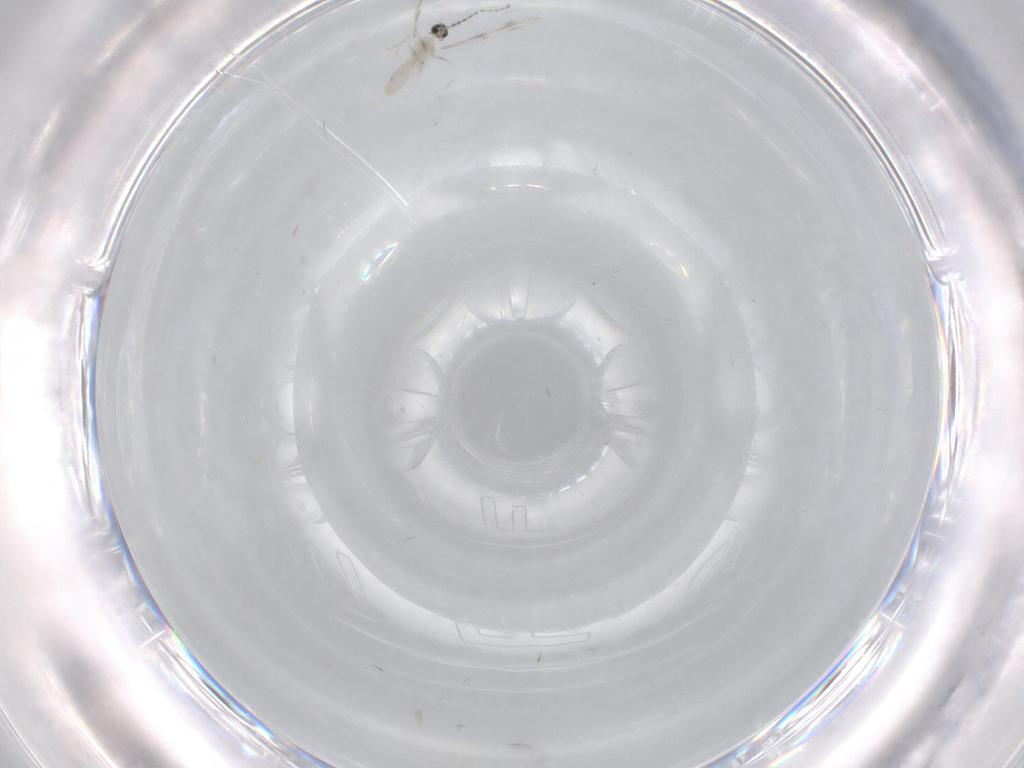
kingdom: Animalia
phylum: Arthropoda
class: Insecta
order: Diptera
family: Cecidomyiidae
